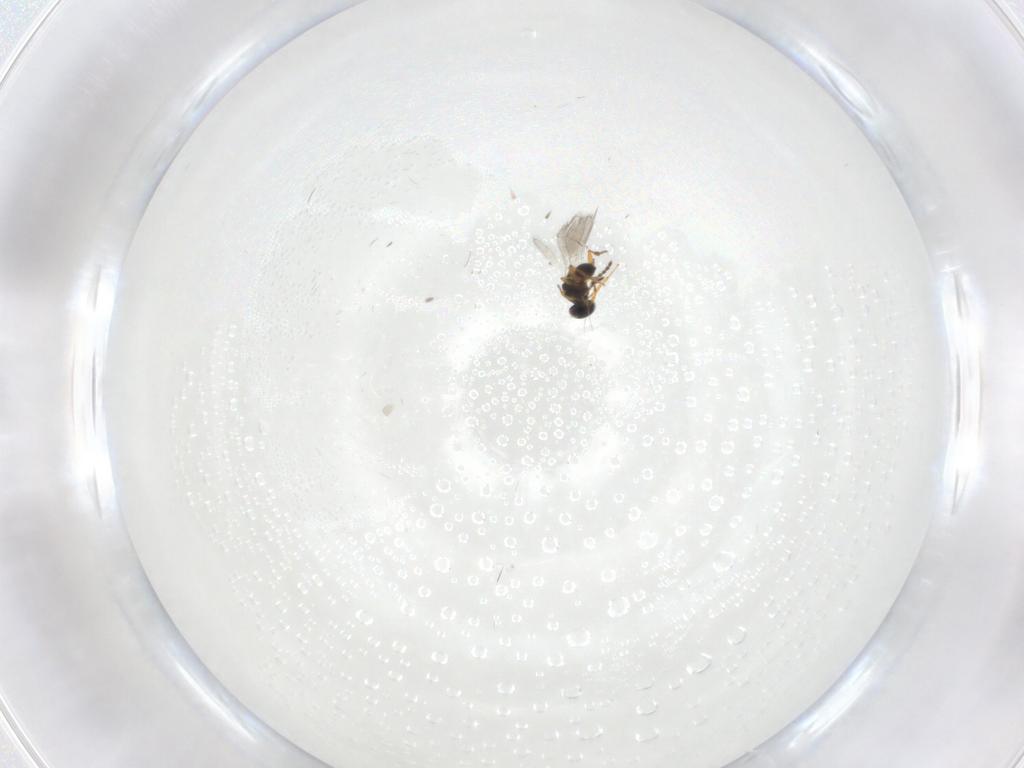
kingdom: Animalia
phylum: Arthropoda
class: Insecta
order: Hymenoptera
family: Platygastridae
